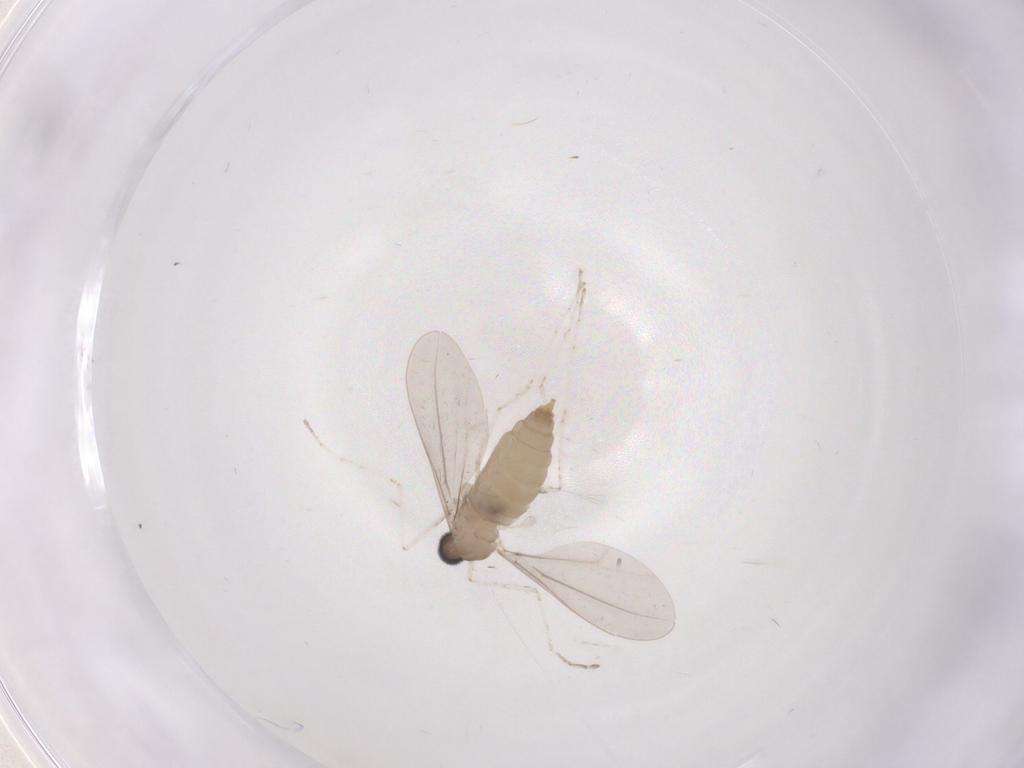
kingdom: Animalia
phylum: Arthropoda
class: Insecta
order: Diptera
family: Cecidomyiidae
